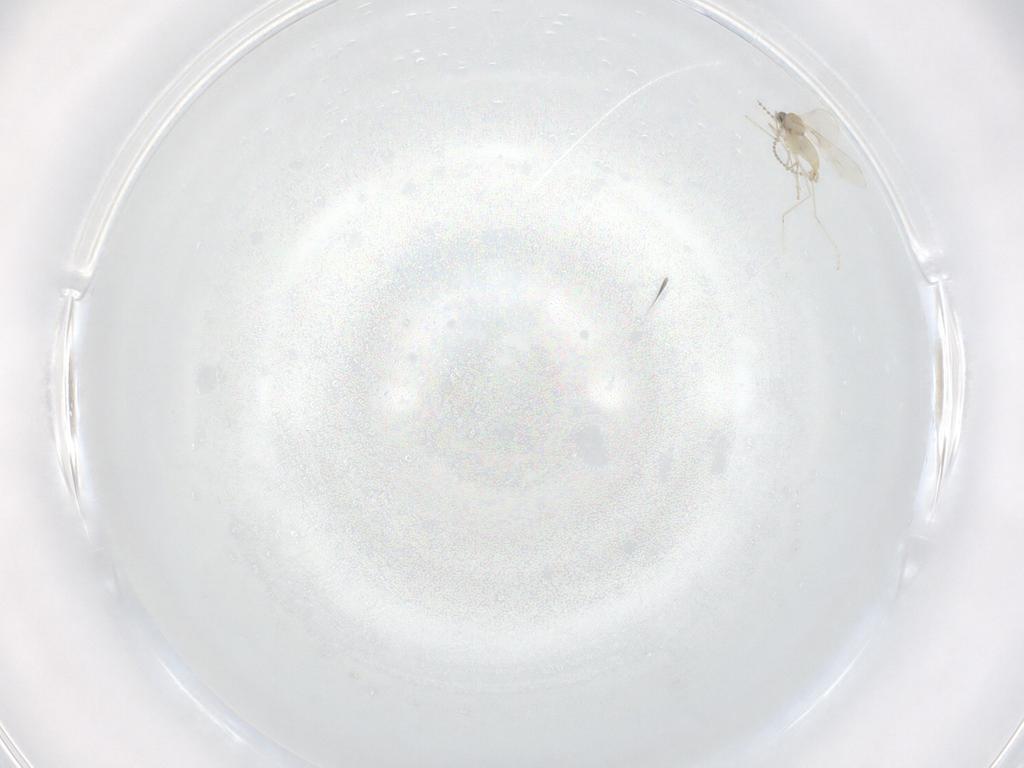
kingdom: Animalia
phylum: Arthropoda
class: Insecta
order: Diptera
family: Cecidomyiidae
